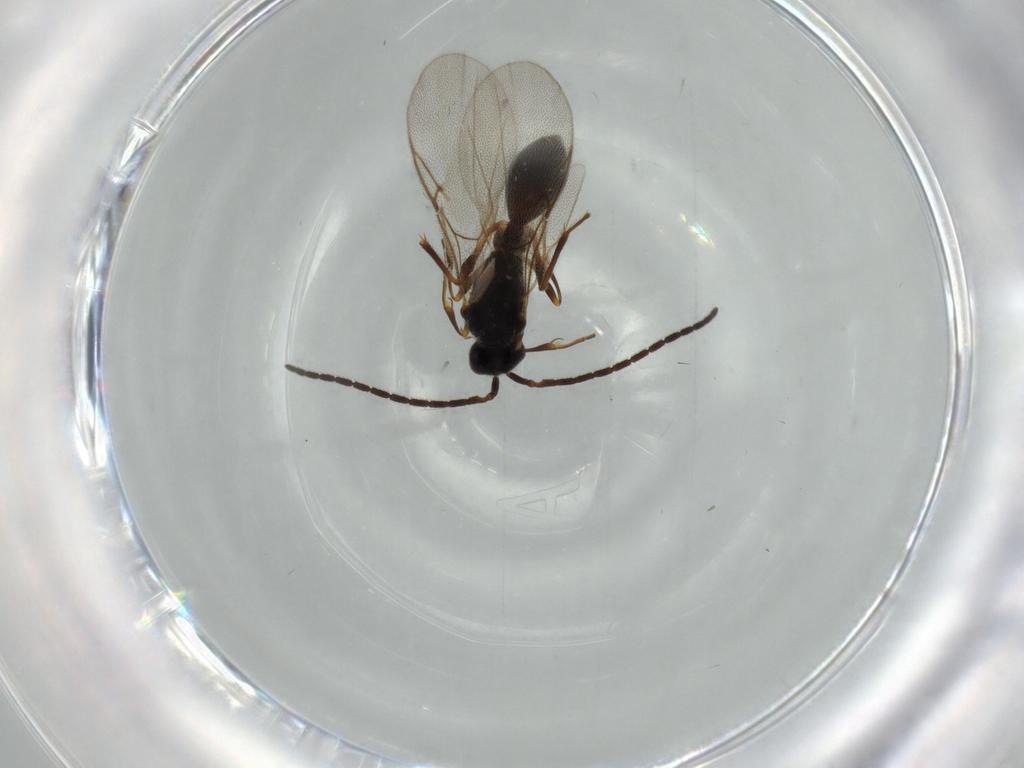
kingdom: Animalia
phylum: Arthropoda
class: Insecta
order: Hymenoptera
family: Diapriidae
